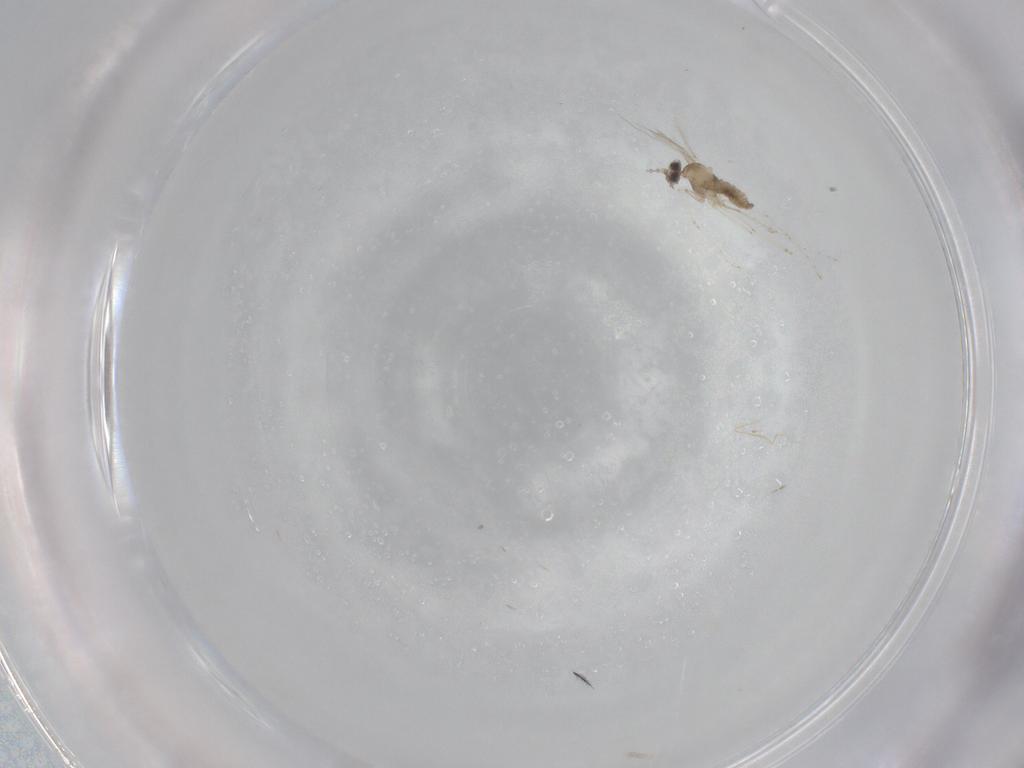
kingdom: Animalia
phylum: Arthropoda
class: Insecta
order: Diptera
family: Cecidomyiidae
